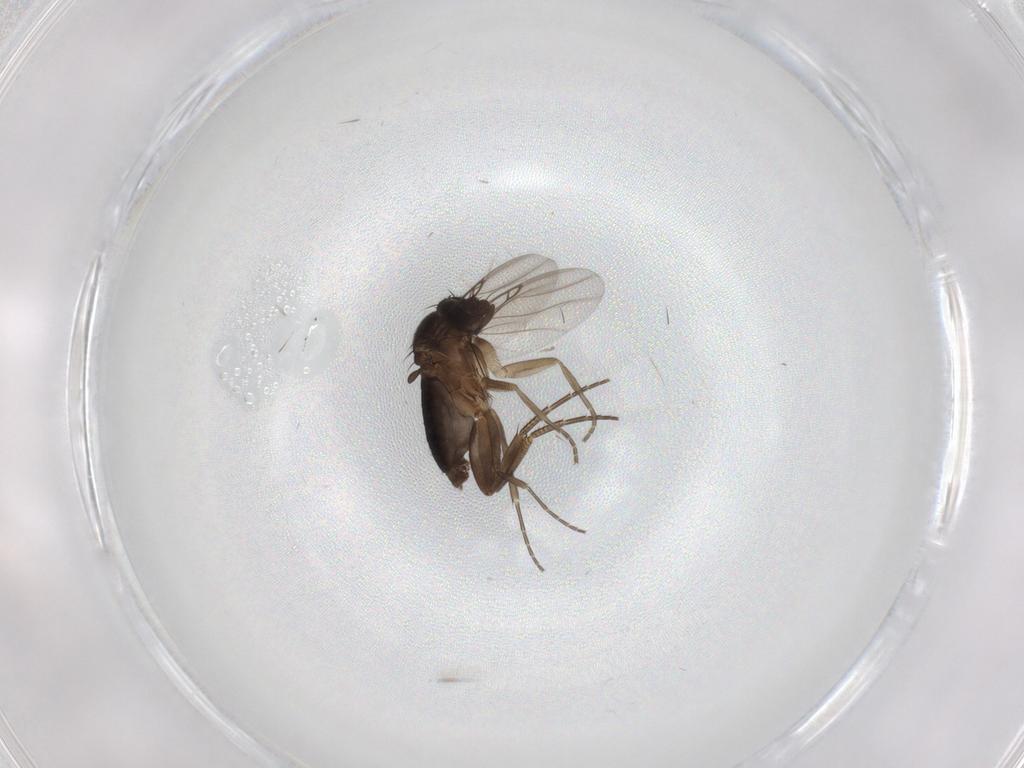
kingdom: Animalia
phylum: Arthropoda
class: Insecta
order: Diptera
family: Phoridae
